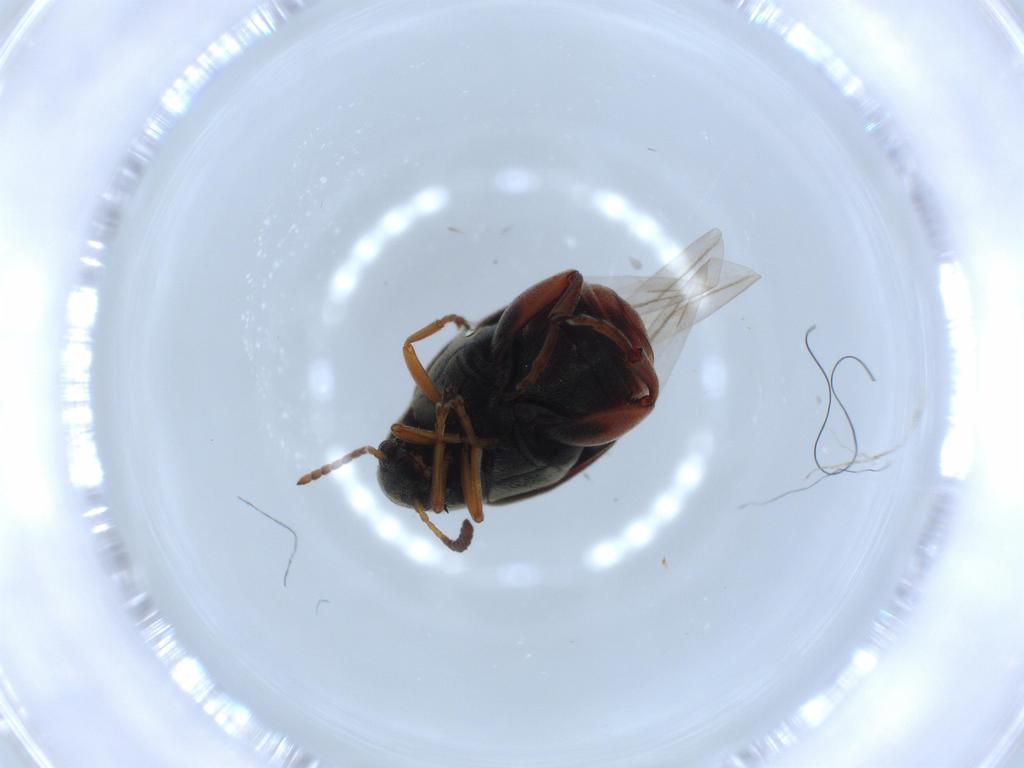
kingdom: Animalia
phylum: Arthropoda
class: Insecta
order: Coleoptera
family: Chrysomelidae
